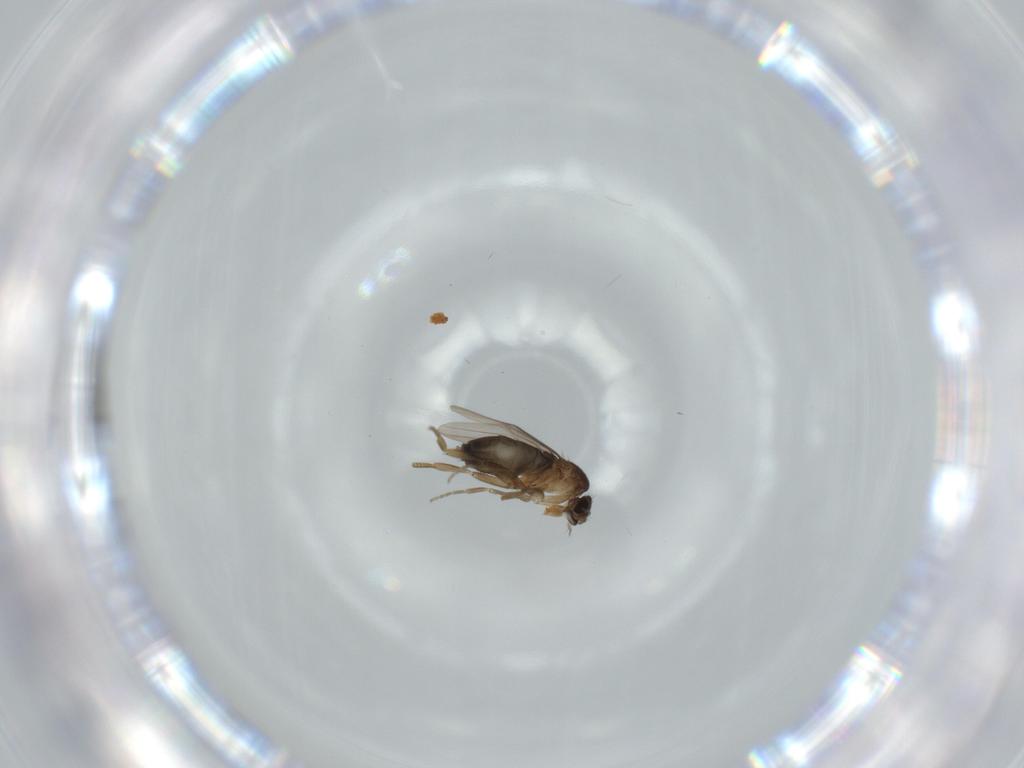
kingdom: Animalia
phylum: Arthropoda
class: Insecta
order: Diptera
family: Phoridae
